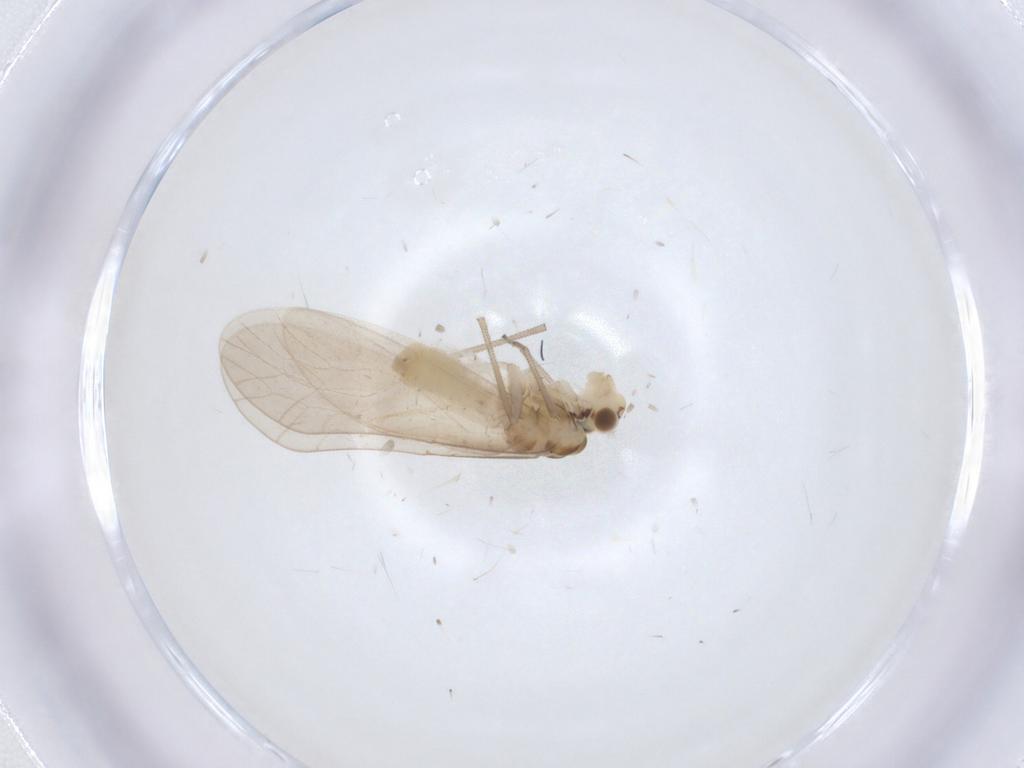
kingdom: Animalia
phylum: Arthropoda
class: Insecta
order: Psocodea
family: Caeciliusidae
